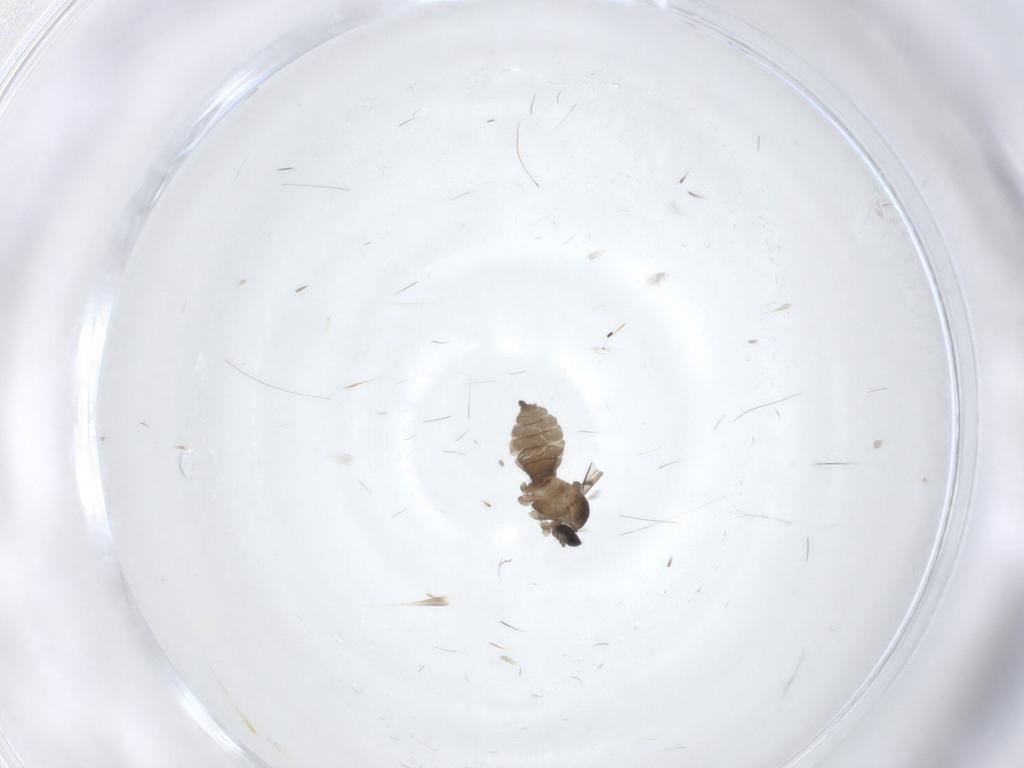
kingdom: Animalia
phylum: Arthropoda
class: Insecta
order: Diptera
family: Cecidomyiidae
